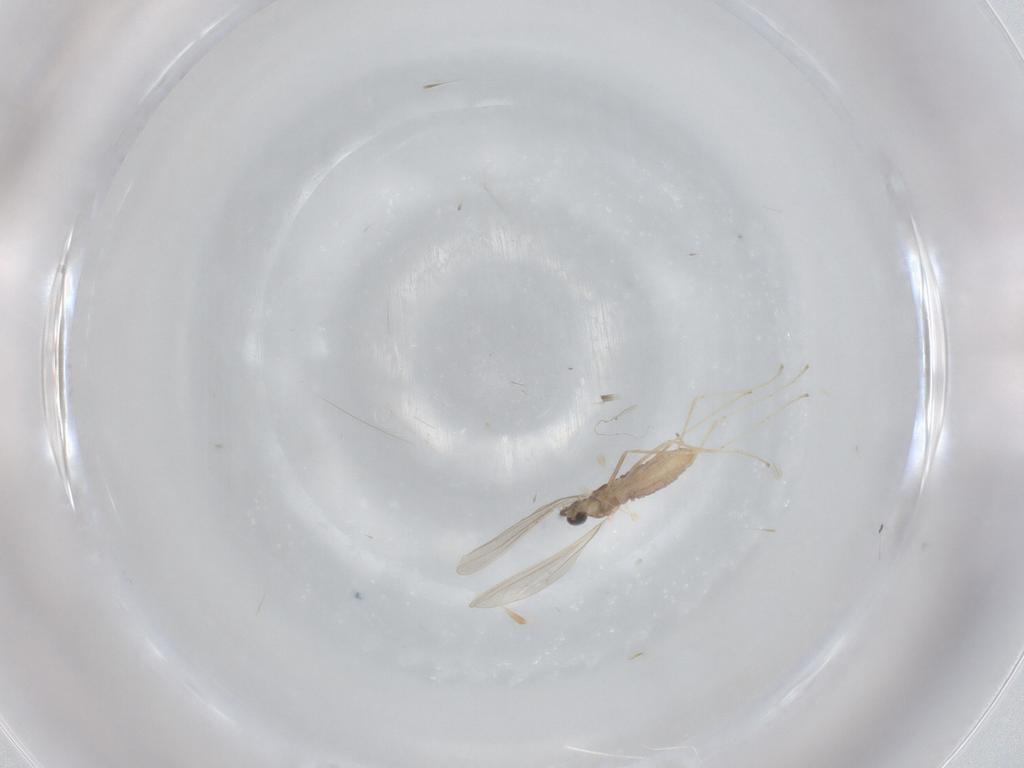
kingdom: Animalia
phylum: Arthropoda
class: Insecta
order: Diptera
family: Cecidomyiidae
